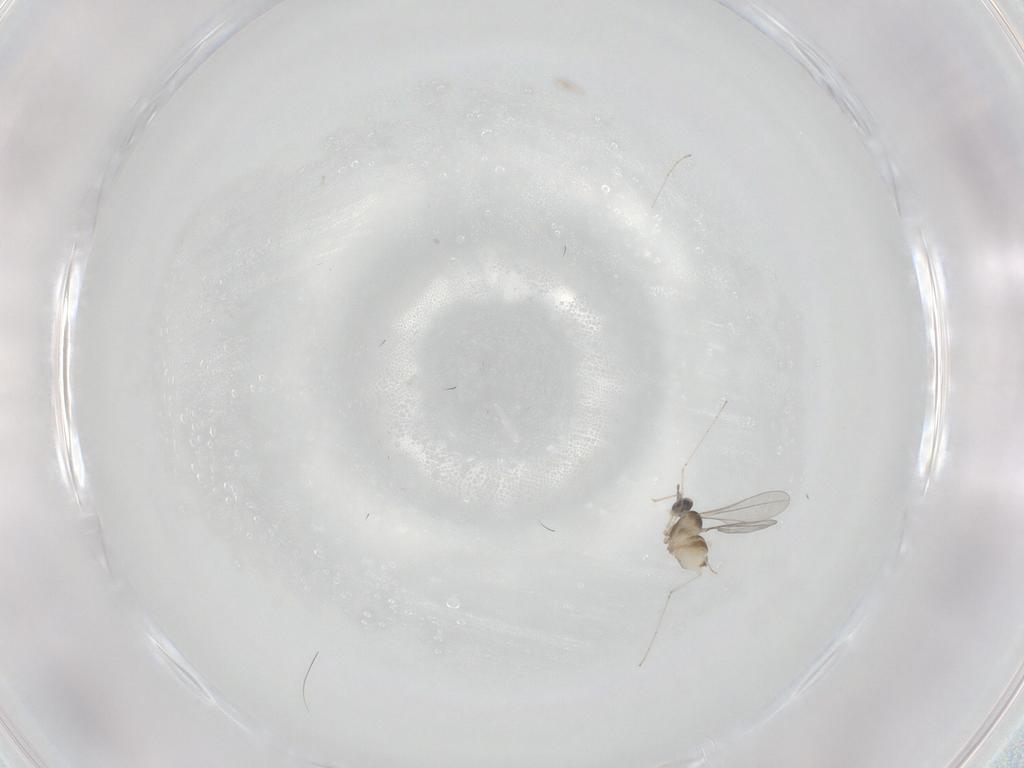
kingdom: Animalia
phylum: Arthropoda
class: Insecta
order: Diptera
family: Cecidomyiidae
